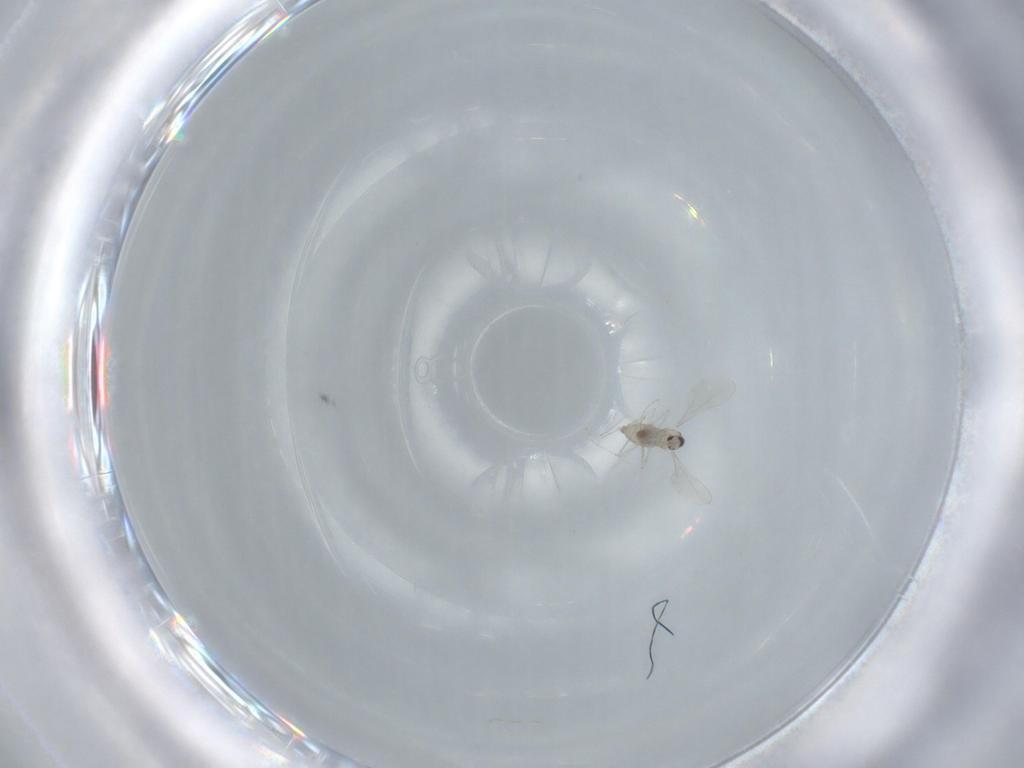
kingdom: Animalia
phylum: Arthropoda
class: Insecta
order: Diptera
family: Cecidomyiidae
